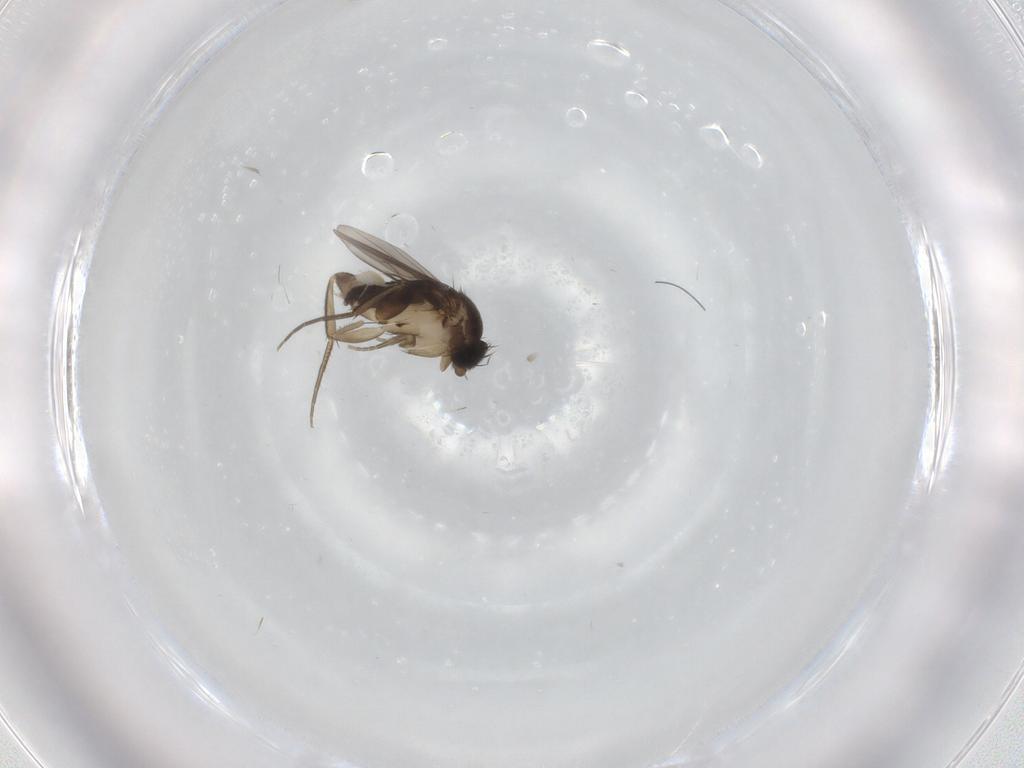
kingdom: Animalia
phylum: Arthropoda
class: Insecta
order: Diptera
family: Phoridae
